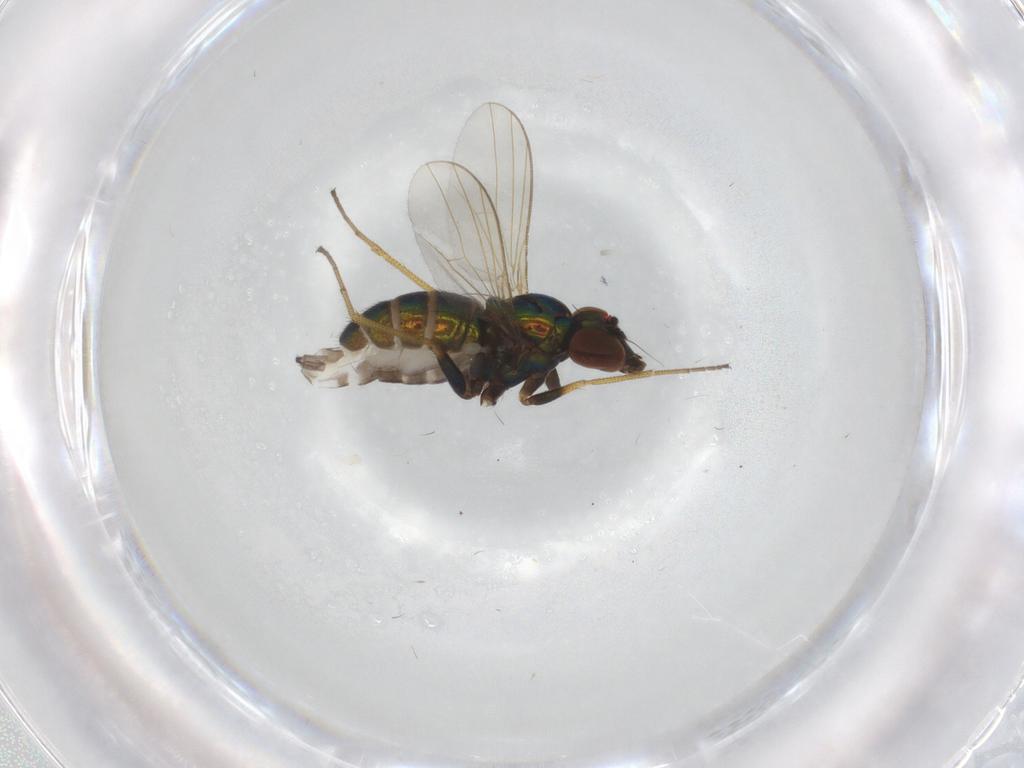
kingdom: Animalia
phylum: Arthropoda
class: Insecta
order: Diptera
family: Dolichopodidae
